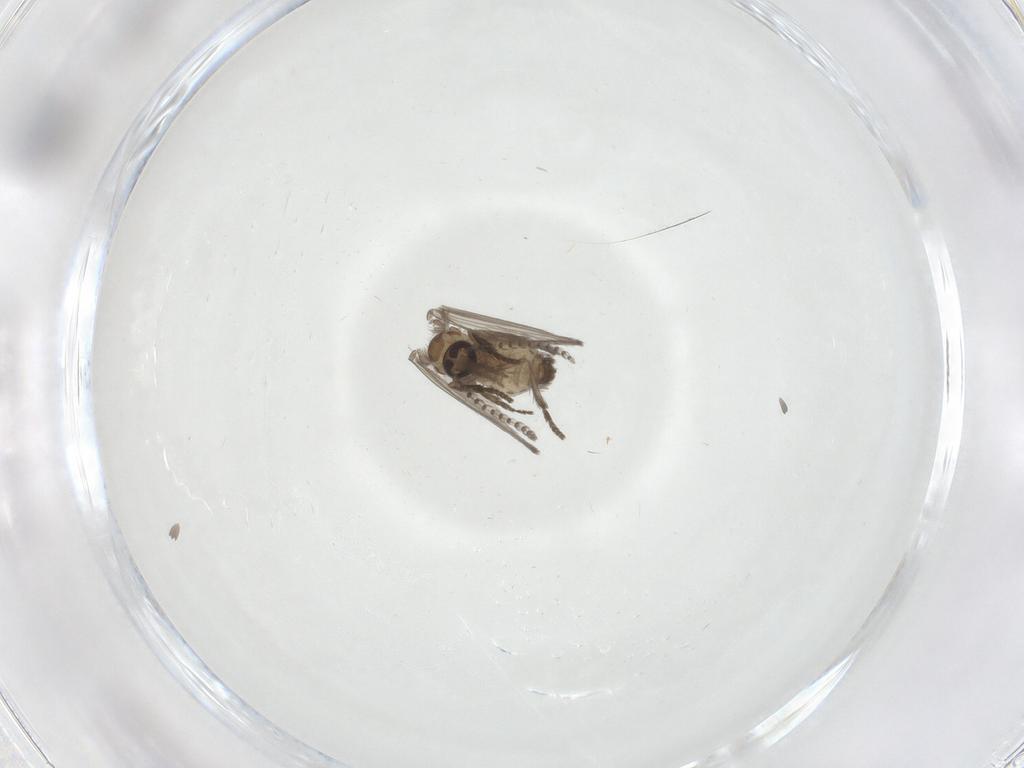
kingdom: Animalia
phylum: Arthropoda
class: Insecta
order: Diptera
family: Psychodidae
